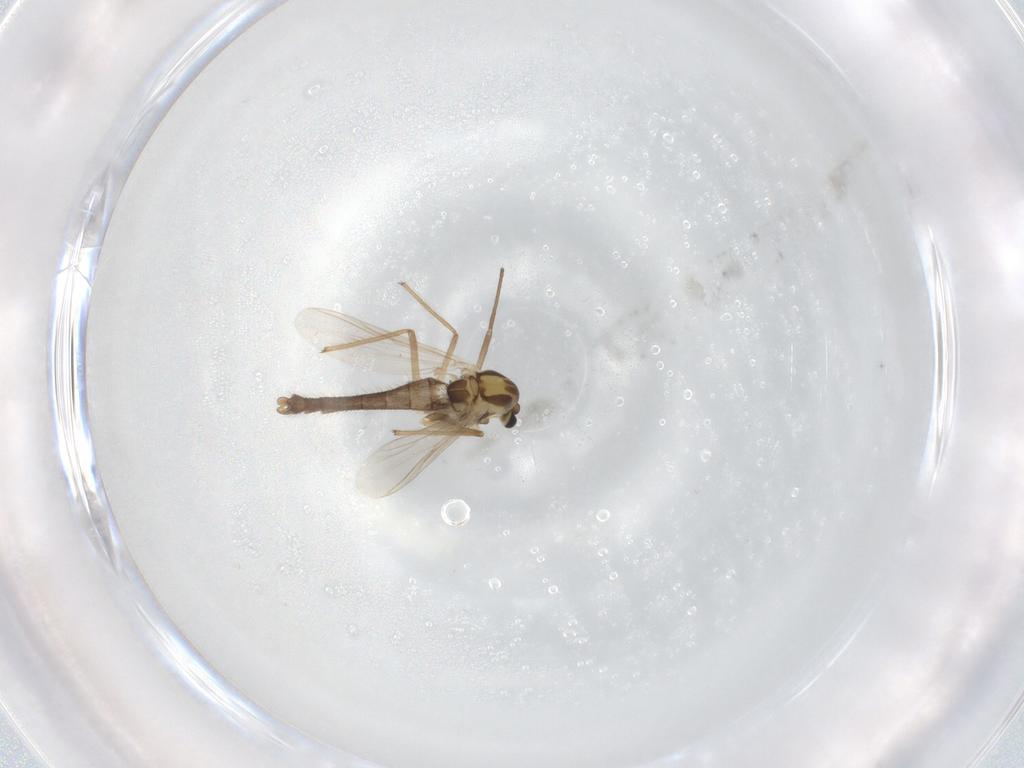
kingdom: Animalia
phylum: Arthropoda
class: Insecta
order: Diptera
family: Chironomidae
